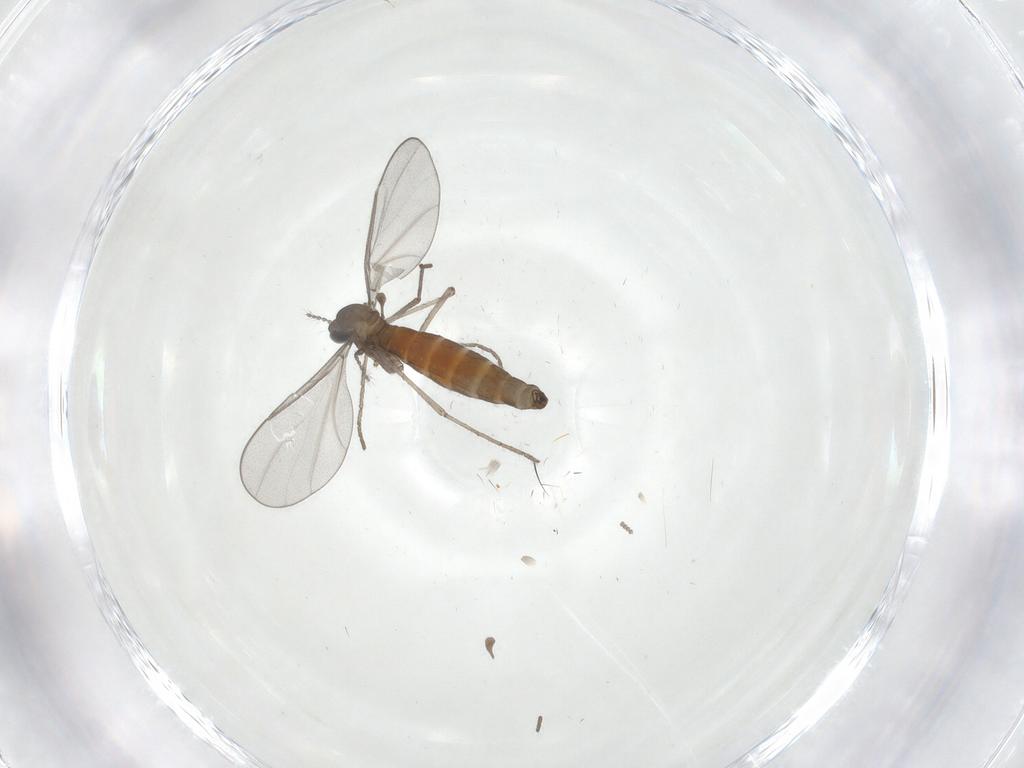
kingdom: Animalia
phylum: Arthropoda
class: Insecta
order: Diptera
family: Cecidomyiidae
